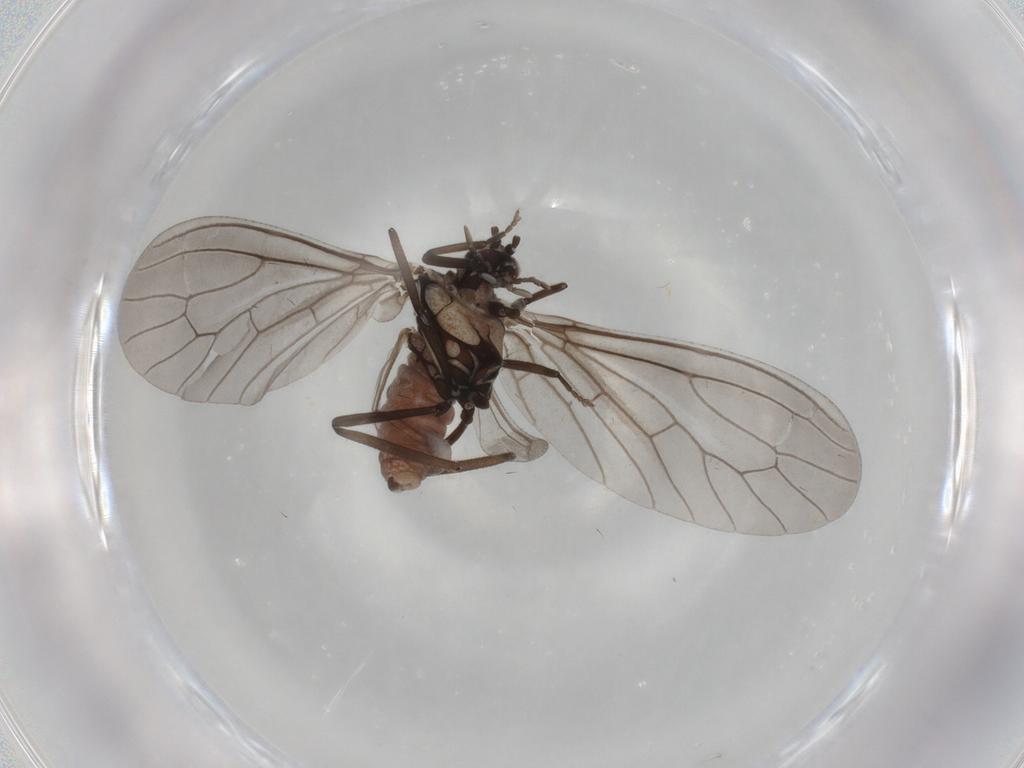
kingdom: Animalia
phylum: Arthropoda
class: Insecta
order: Neuroptera
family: Coniopterygidae
